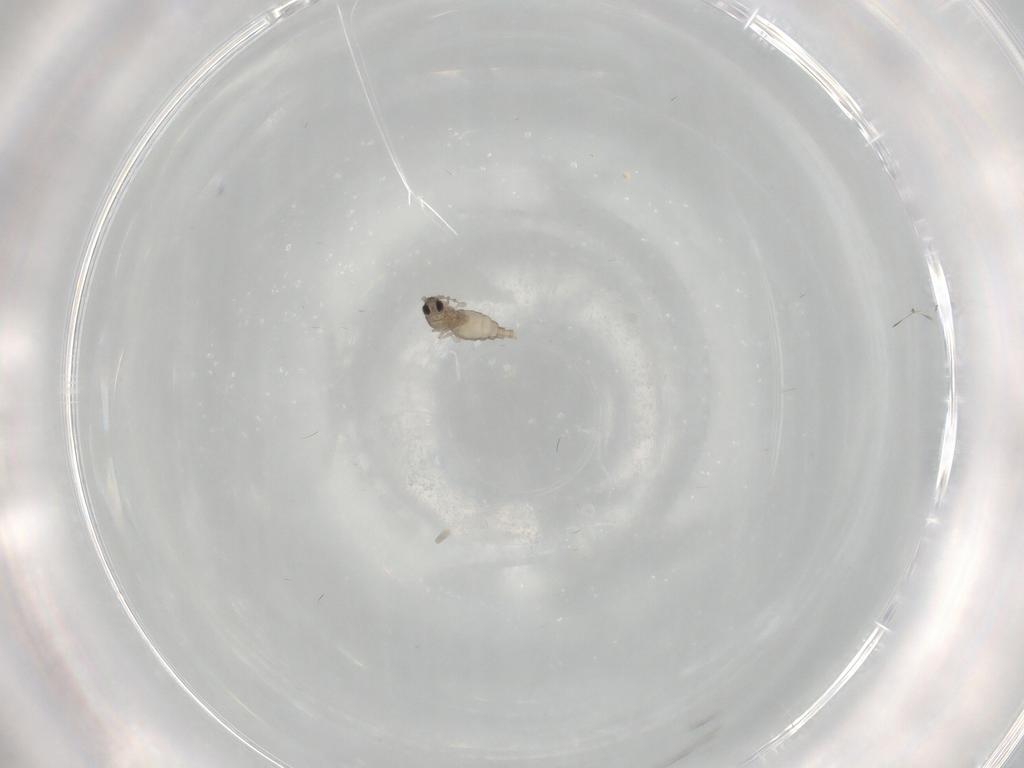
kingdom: Animalia
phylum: Arthropoda
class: Insecta
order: Diptera
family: Cecidomyiidae
